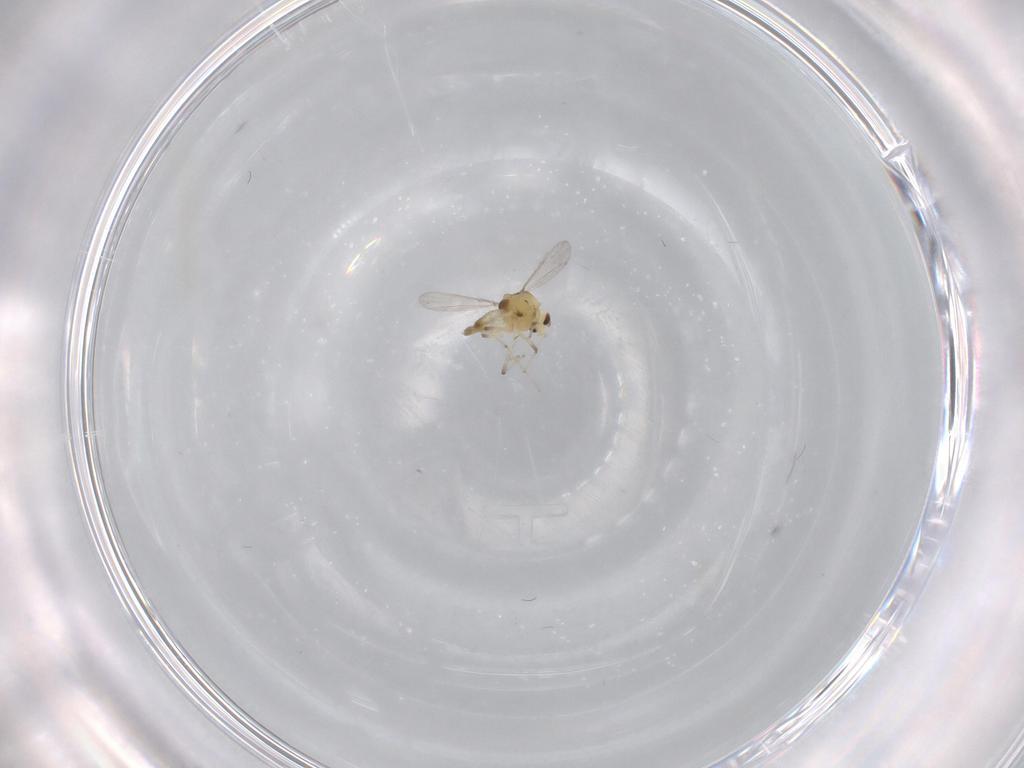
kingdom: Animalia
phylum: Arthropoda
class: Insecta
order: Diptera
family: Chironomidae
